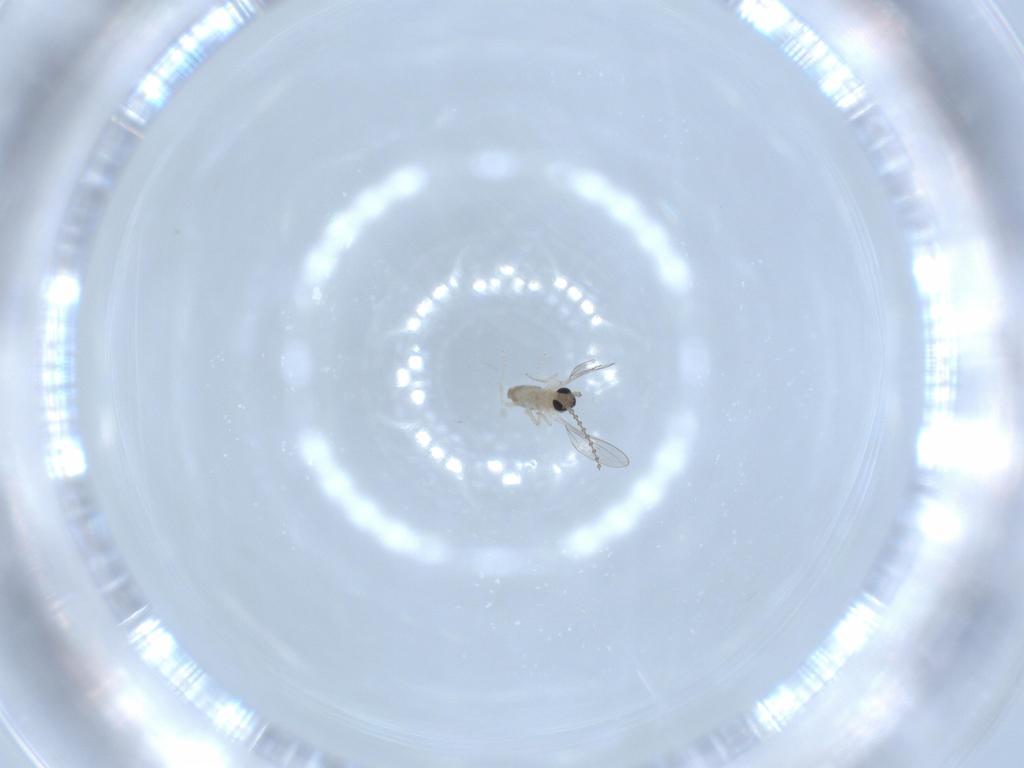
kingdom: Animalia
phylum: Arthropoda
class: Insecta
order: Diptera
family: Cecidomyiidae
